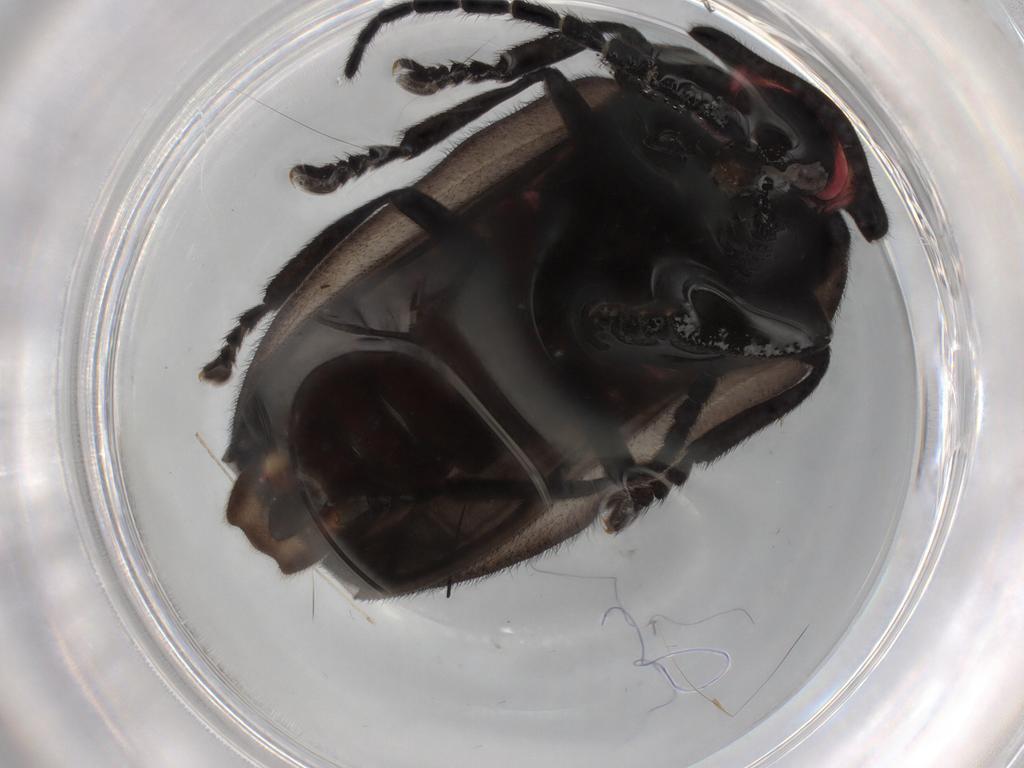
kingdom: Animalia
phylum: Arthropoda
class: Insecta
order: Coleoptera
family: Lampyridae
